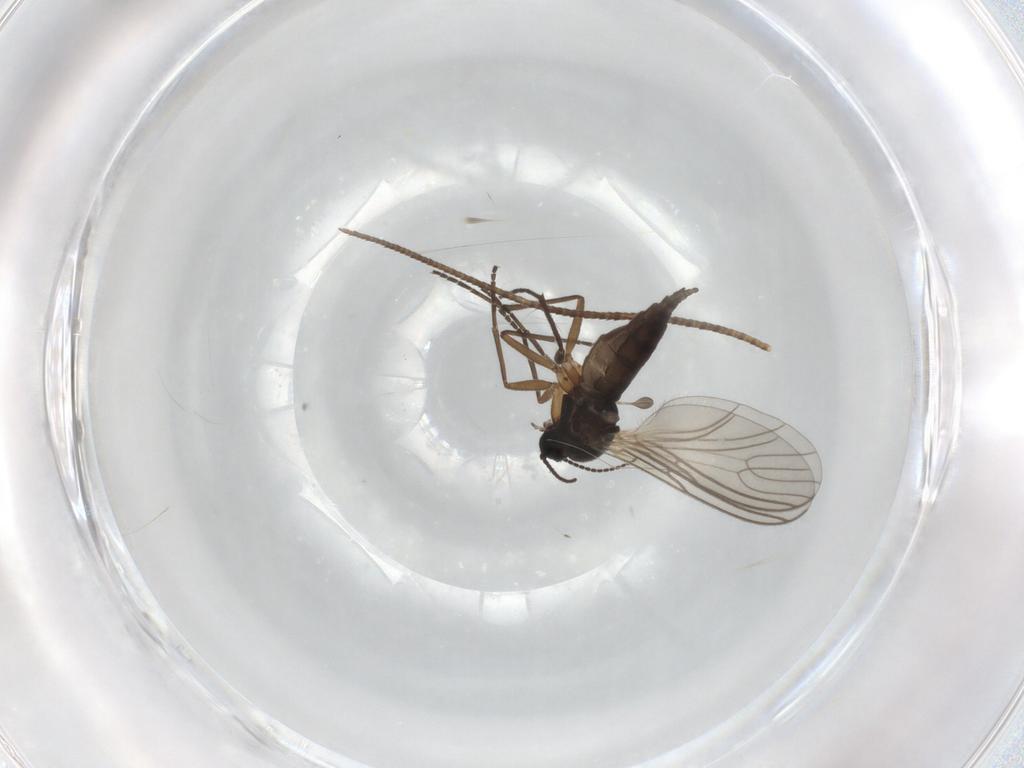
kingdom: Animalia
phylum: Arthropoda
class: Insecta
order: Diptera
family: Sciaridae
